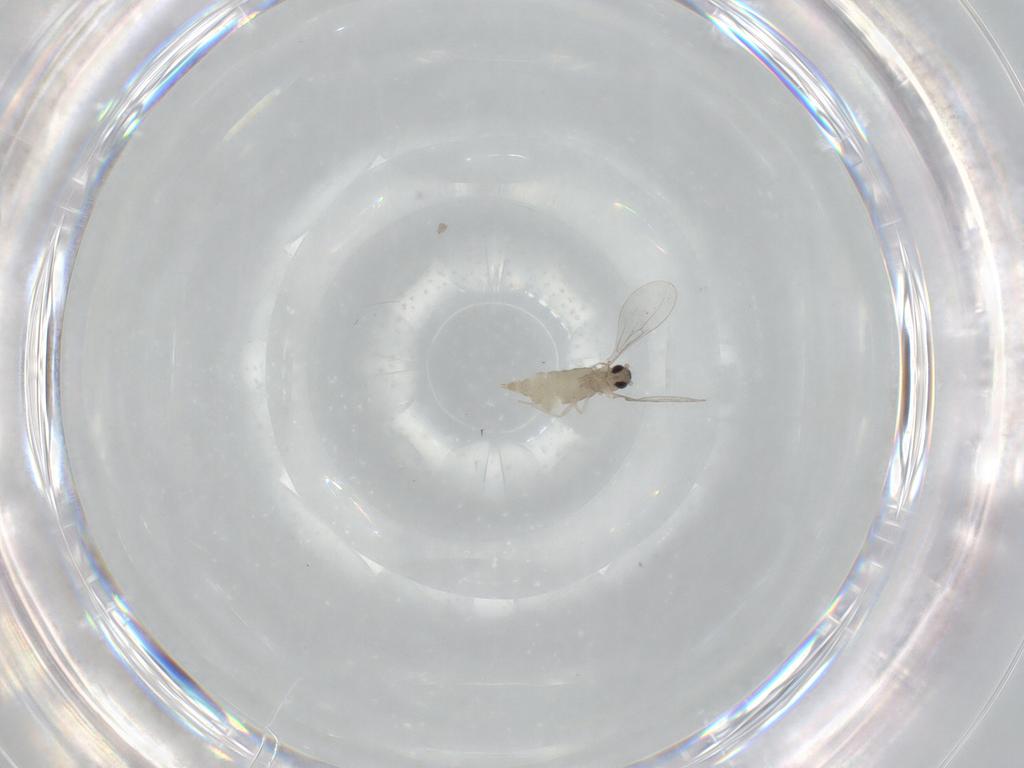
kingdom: Animalia
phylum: Arthropoda
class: Insecta
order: Diptera
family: Cecidomyiidae
